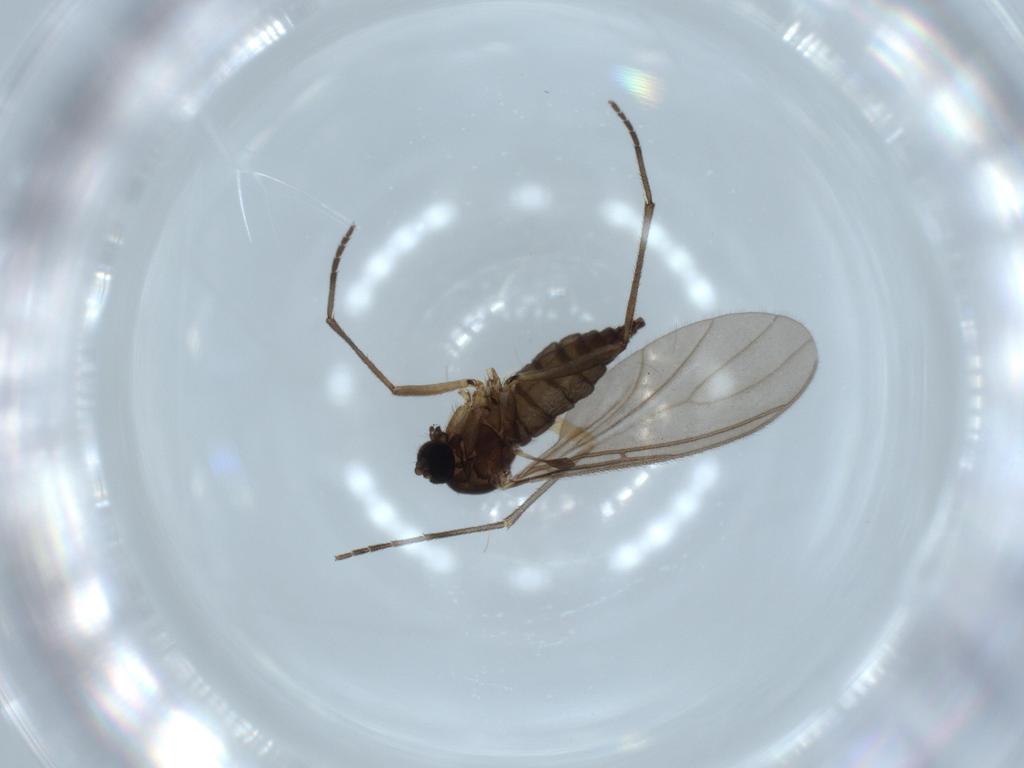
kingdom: Animalia
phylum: Arthropoda
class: Insecta
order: Diptera
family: Sciaridae
